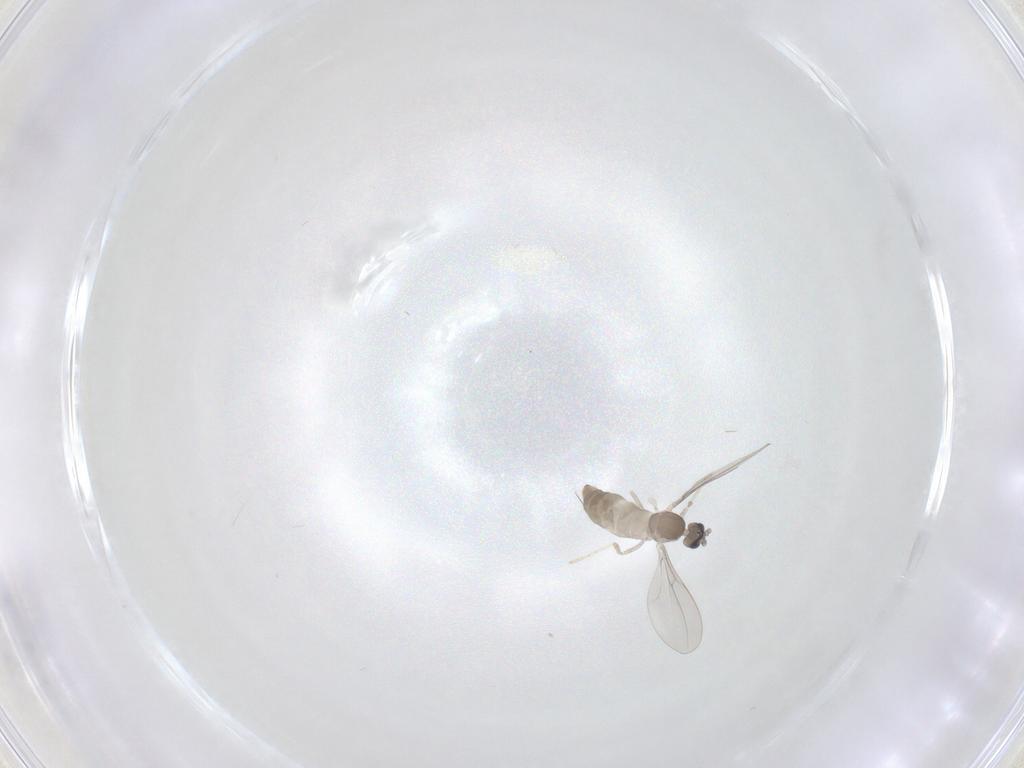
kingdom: Animalia
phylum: Arthropoda
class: Insecta
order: Diptera
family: Cecidomyiidae
